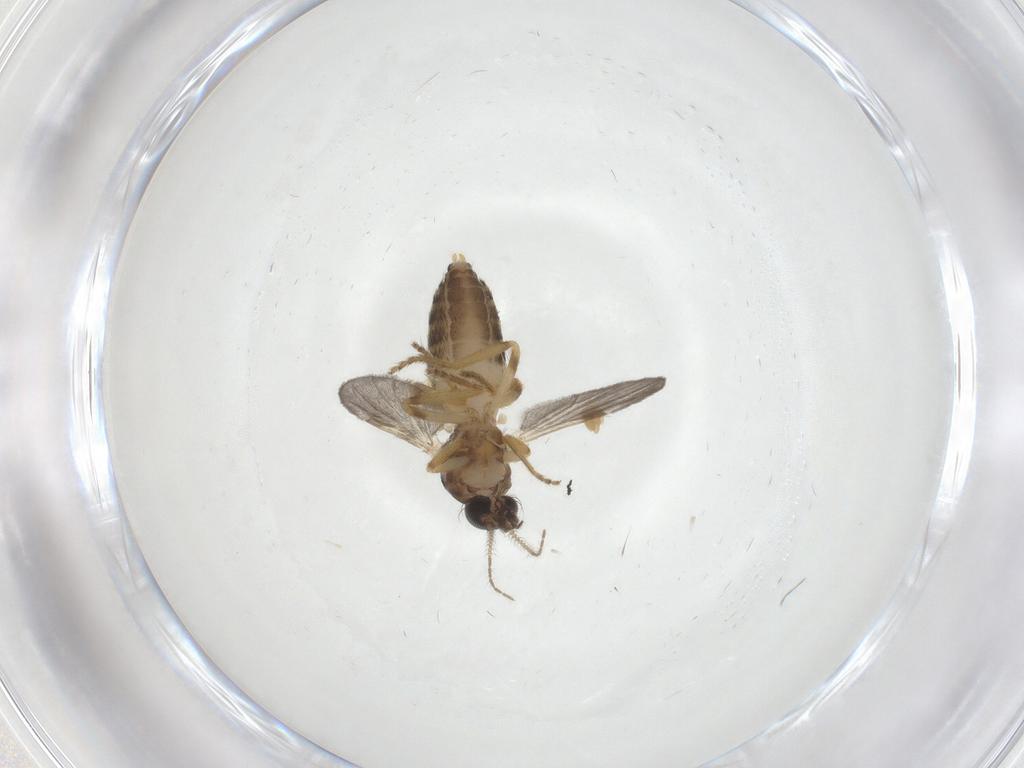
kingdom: Animalia
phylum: Arthropoda
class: Insecta
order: Diptera
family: Ceratopogonidae
